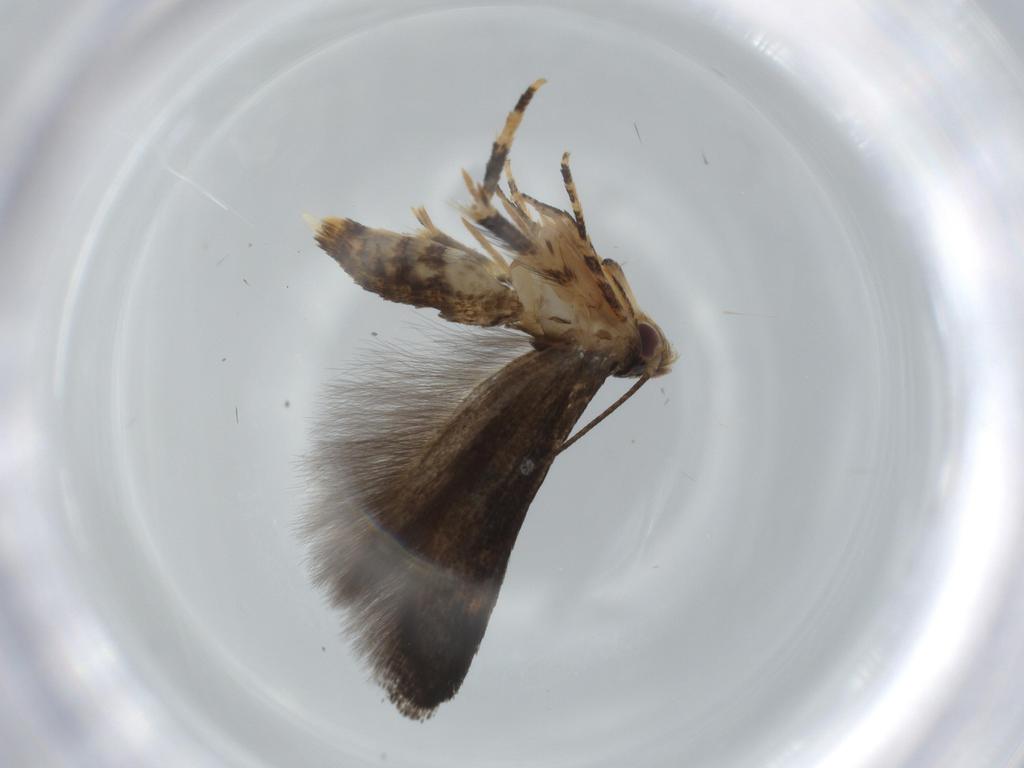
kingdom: Animalia
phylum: Arthropoda
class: Insecta
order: Lepidoptera
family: Momphidae
